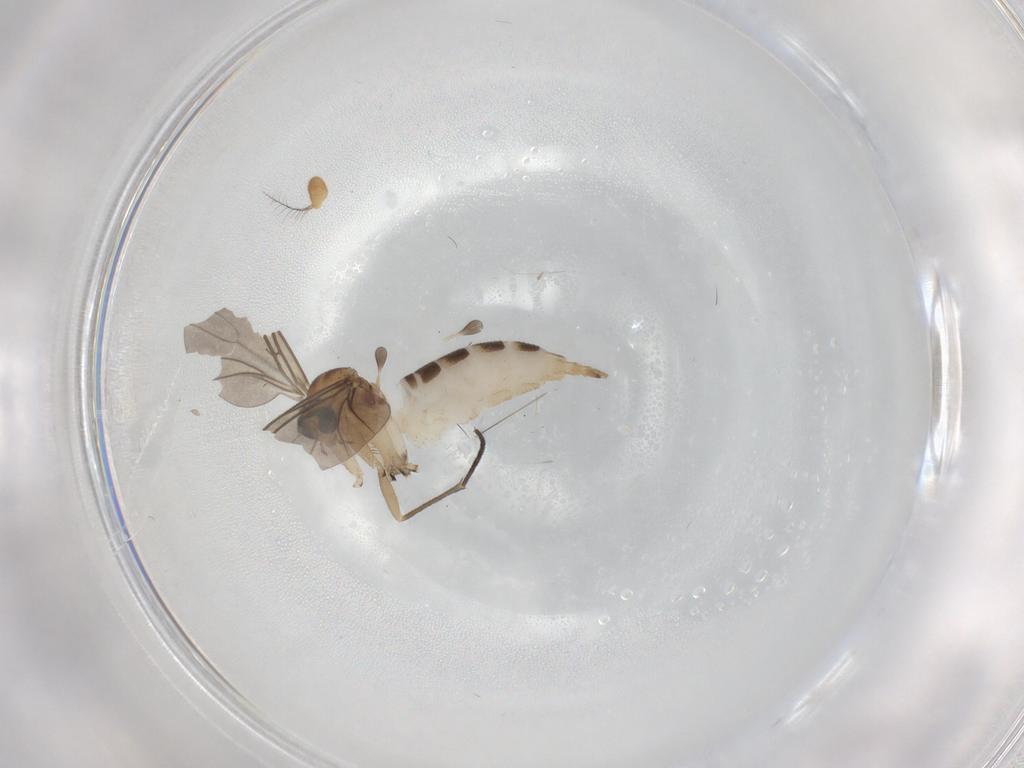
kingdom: Animalia
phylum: Arthropoda
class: Insecta
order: Diptera
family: Sciaridae
